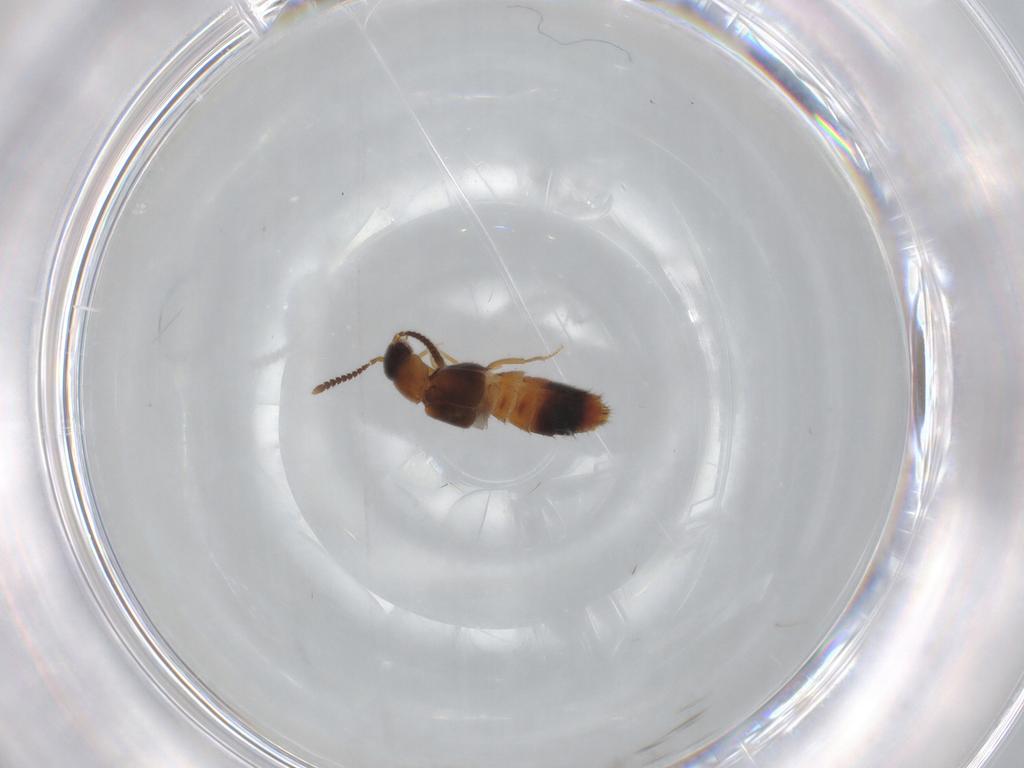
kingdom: Animalia
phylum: Arthropoda
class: Insecta
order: Coleoptera
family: Staphylinidae
